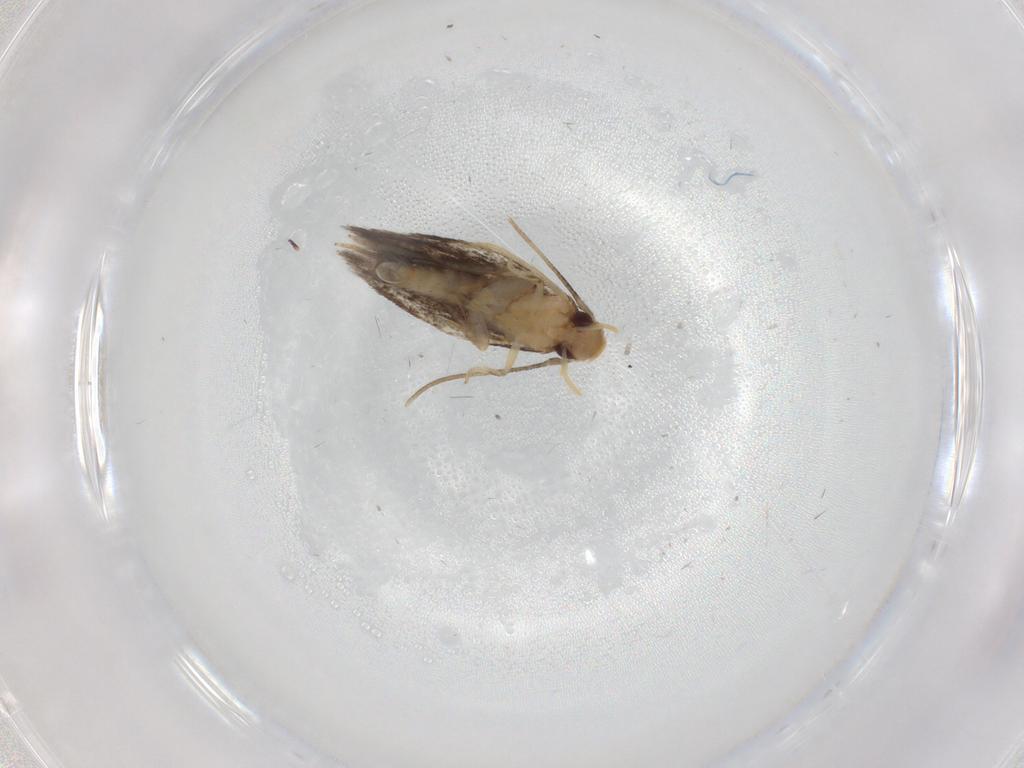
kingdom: Animalia
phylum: Arthropoda
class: Insecta
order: Lepidoptera
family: Gelechiidae
